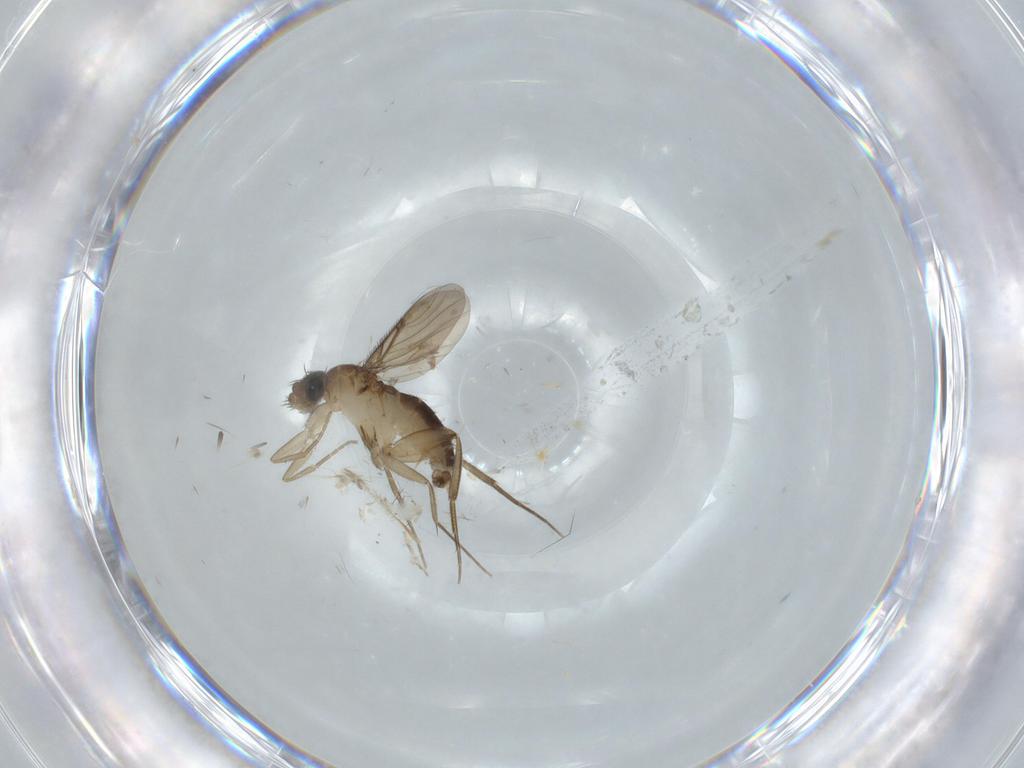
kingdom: Animalia
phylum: Arthropoda
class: Insecta
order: Diptera
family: Phoridae
